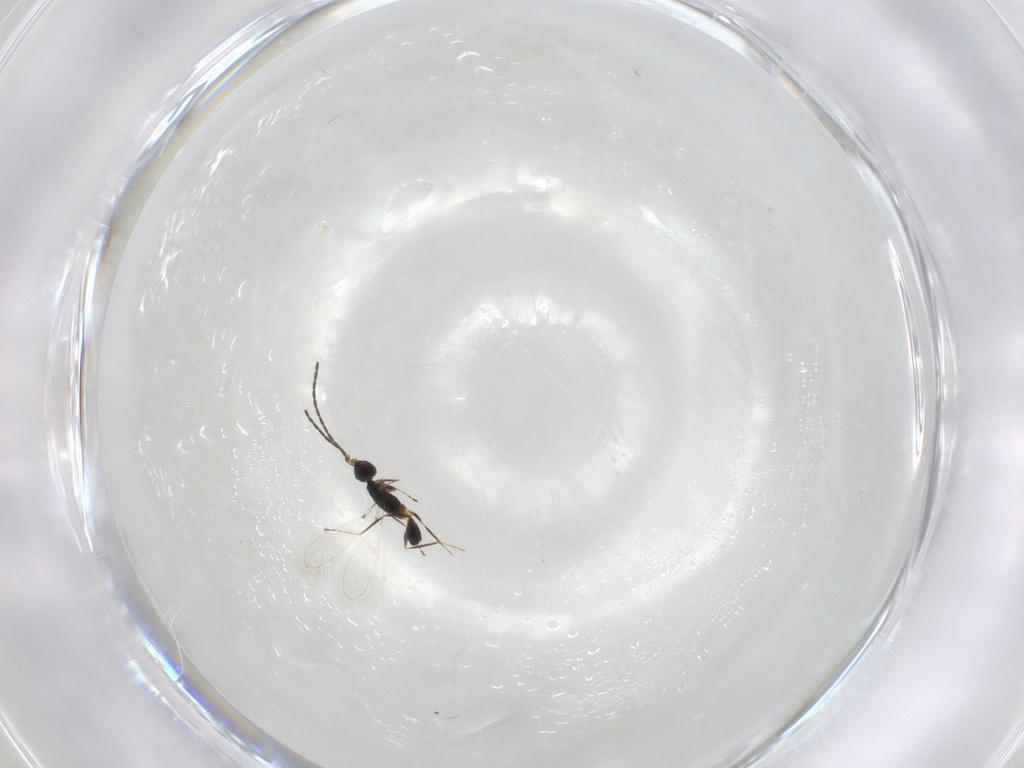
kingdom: Animalia
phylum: Arthropoda
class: Insecta
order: Hymenoptera
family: Mymaridae
